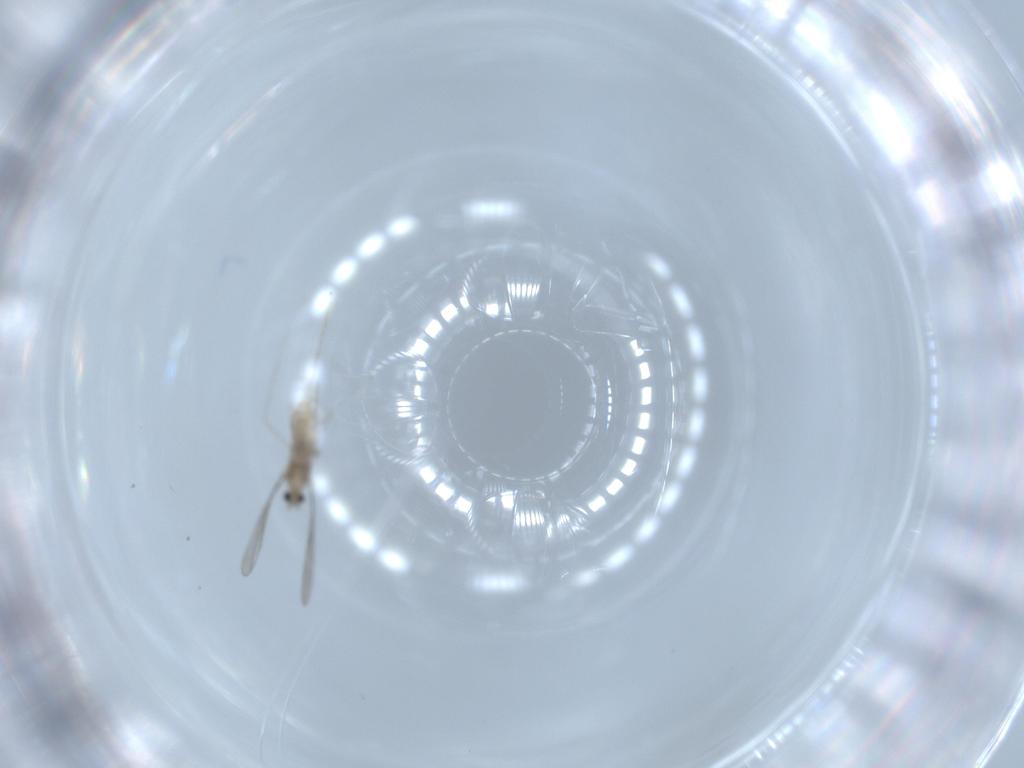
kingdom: Animalia
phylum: Arthropoda
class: Insecta
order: Diptera
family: Cecidomyiidae
